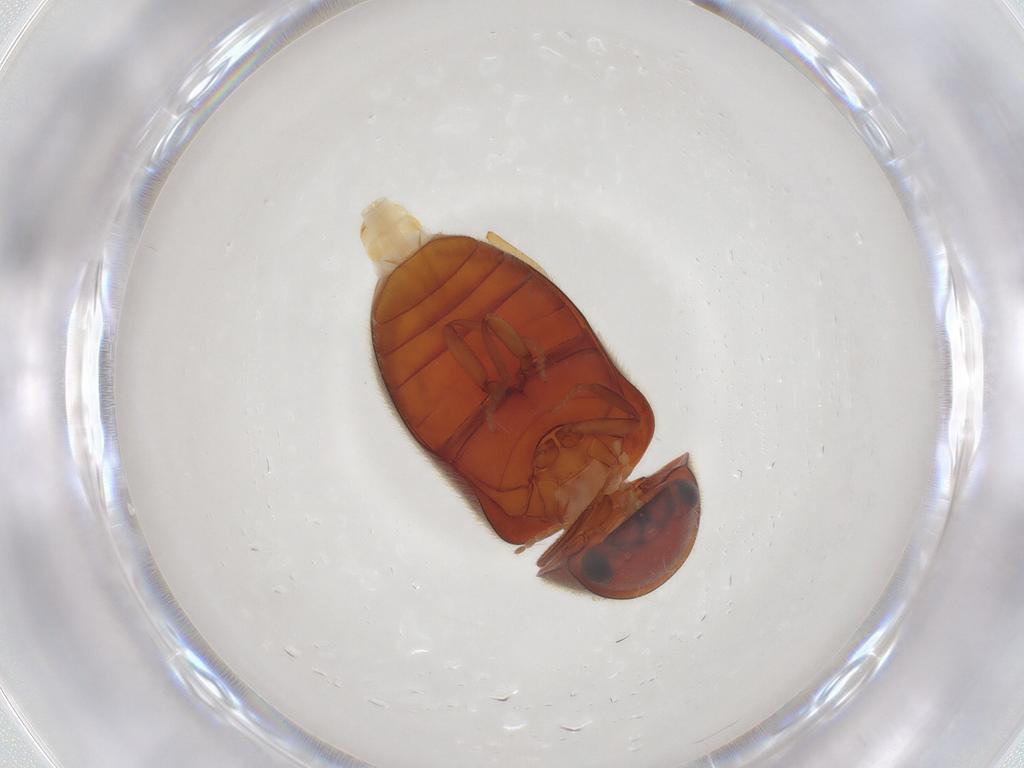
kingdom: Animalia
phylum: Arthropoda
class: Insecta
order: Coleoptera
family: Ptinidae
